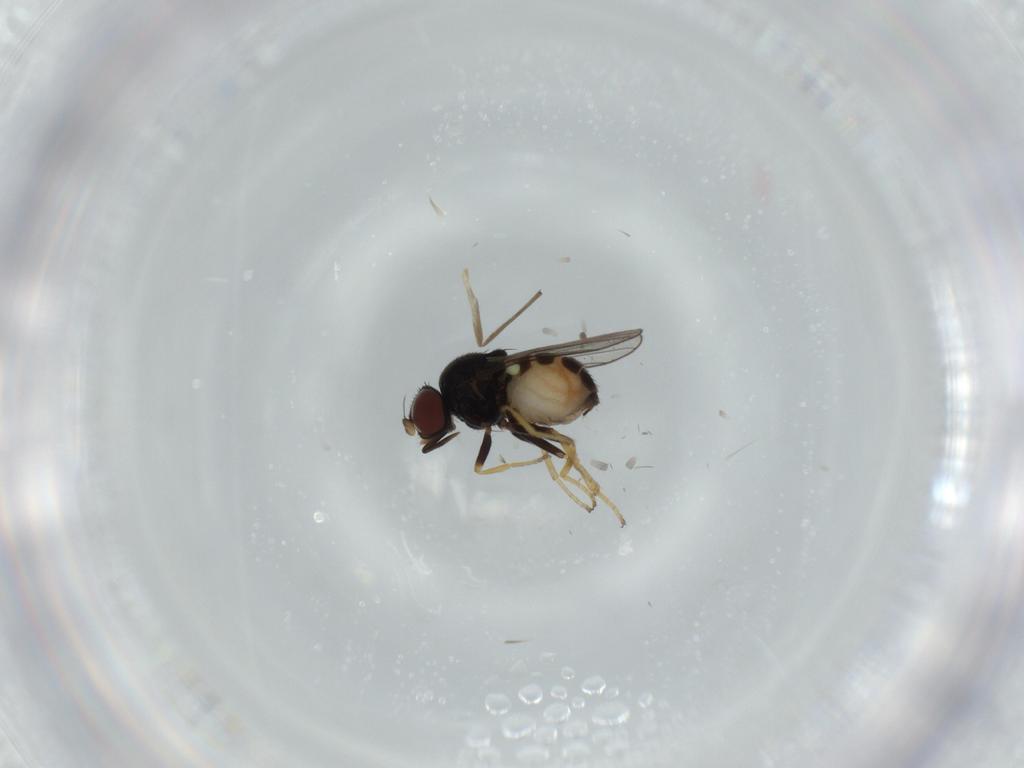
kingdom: Animalia
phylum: Arthropoda
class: Insecta
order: Diptera
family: Chloropidae
